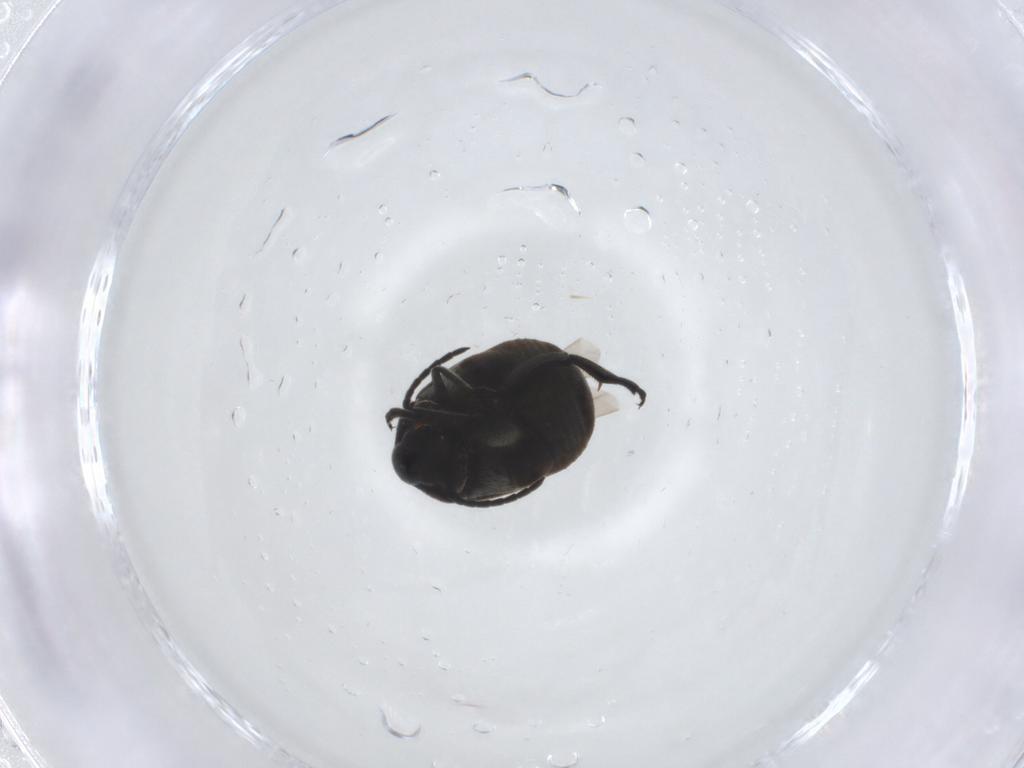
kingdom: Animalia
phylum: Arthropoda
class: Insecta
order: Coleoptera
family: Chrysomelidae
